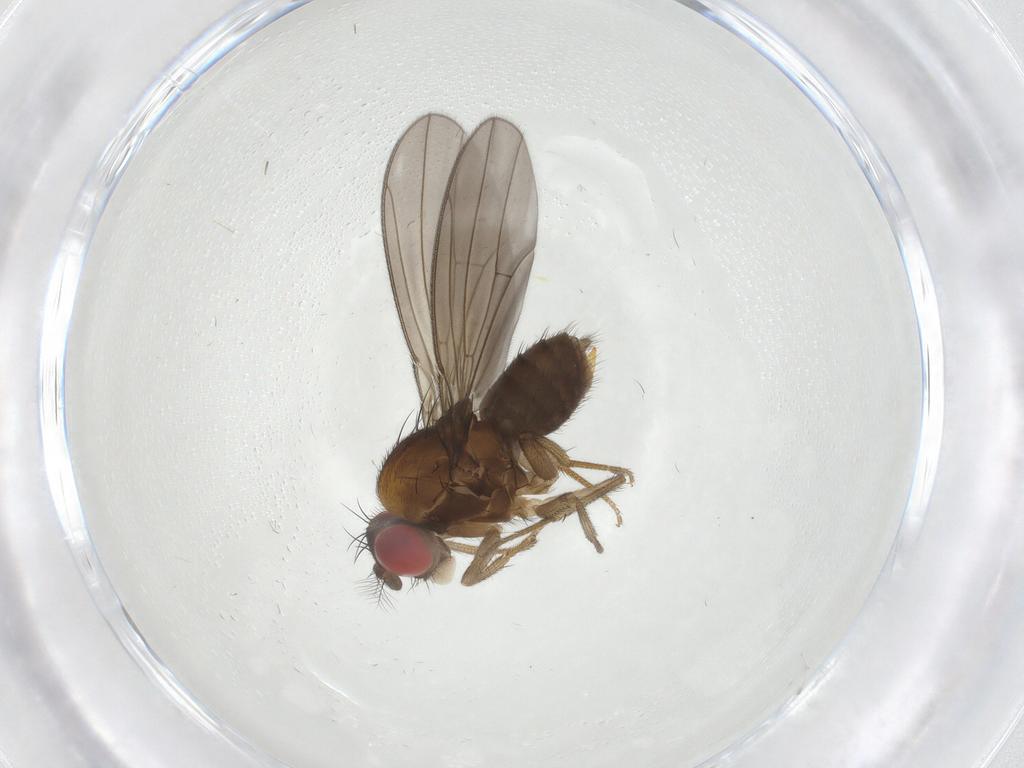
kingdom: Animalia
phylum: Arthropoda
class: Insecta
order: Diptera
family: Drosophilidae
